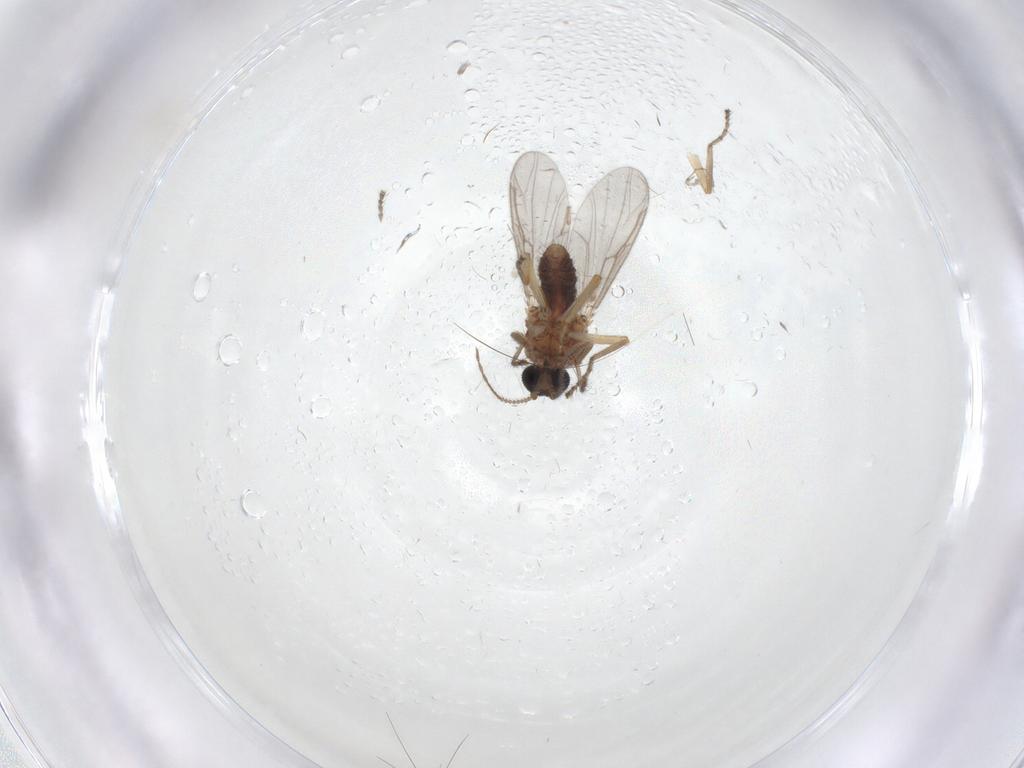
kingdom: Animalia
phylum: Arthropoda
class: Insecta
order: Diptera
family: Ceratopogonidae
